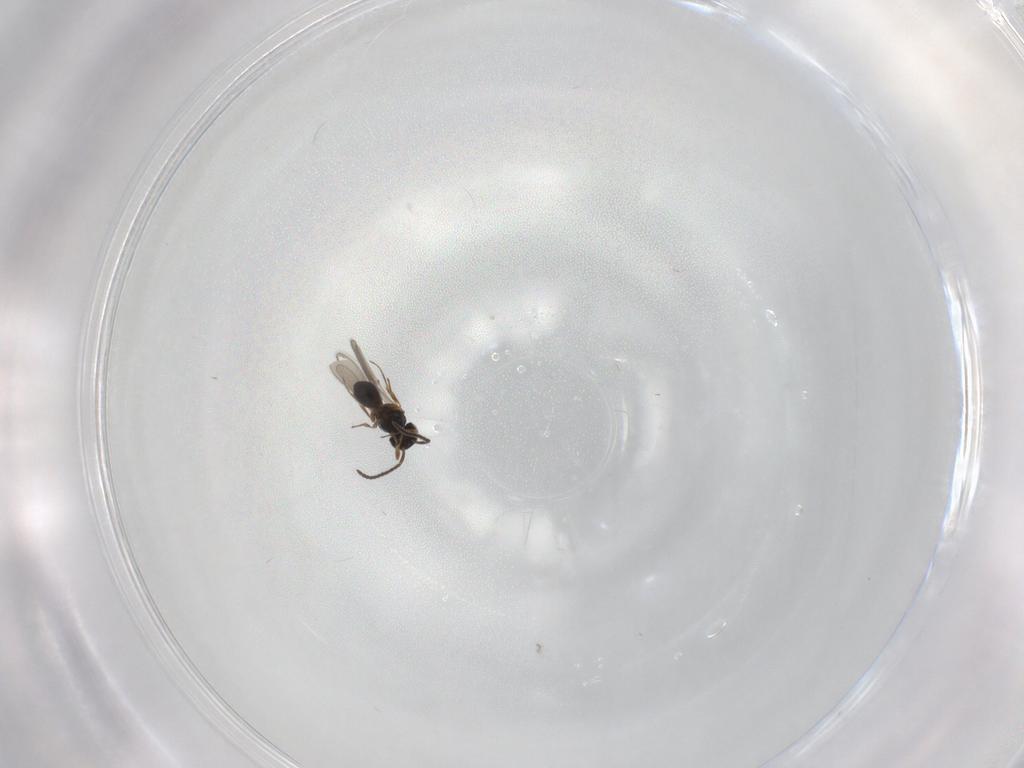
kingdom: Animalia
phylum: Arthropoda
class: Insecta
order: Hymenoptera
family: Scelionidae
